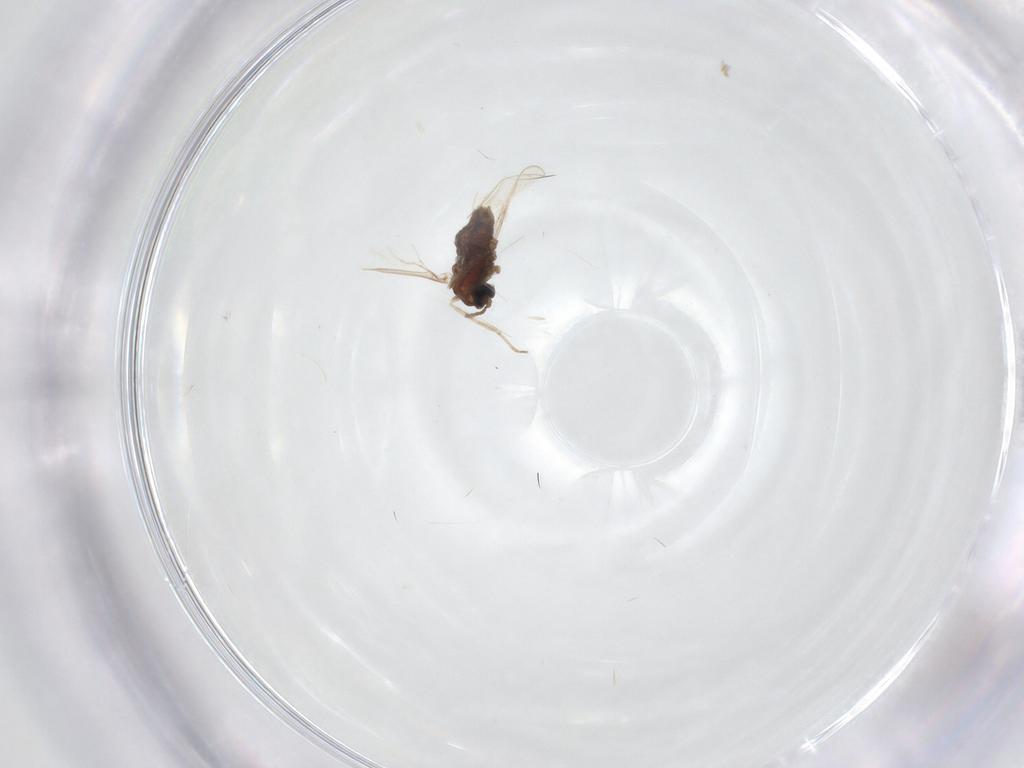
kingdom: Animalia
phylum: Arthropoda
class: Insecta
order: Diptera
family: Cecidomyiidae
